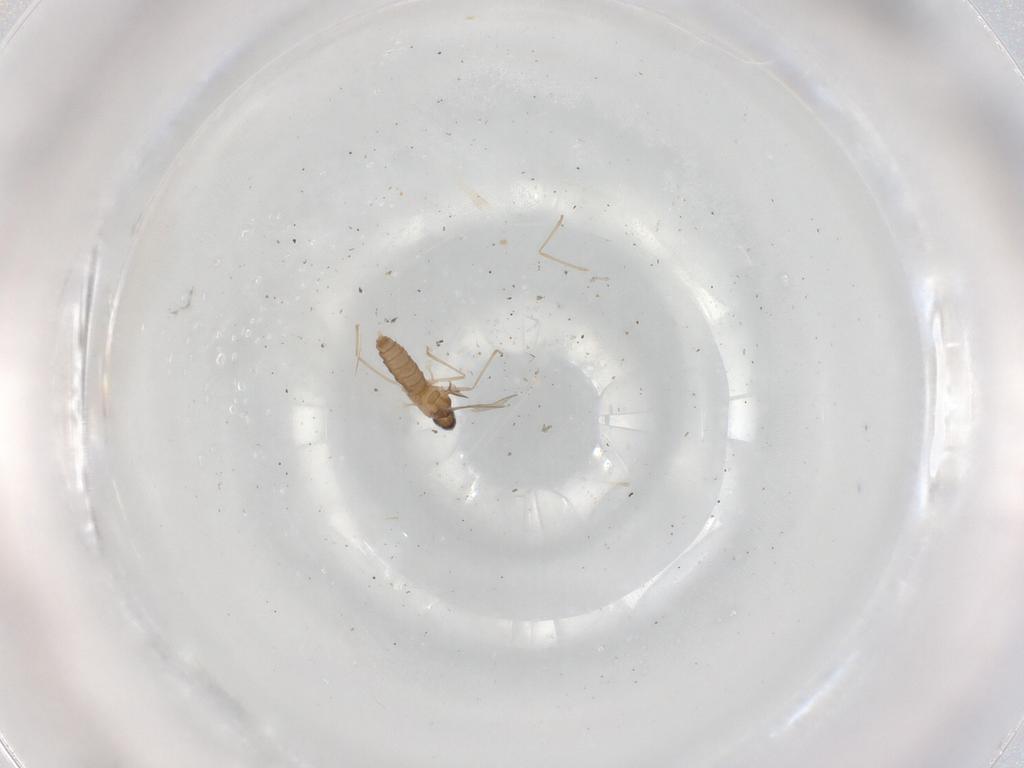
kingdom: Animalia
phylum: Arthropoda
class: Insecta
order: Diptera
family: Cecidomyiidae
